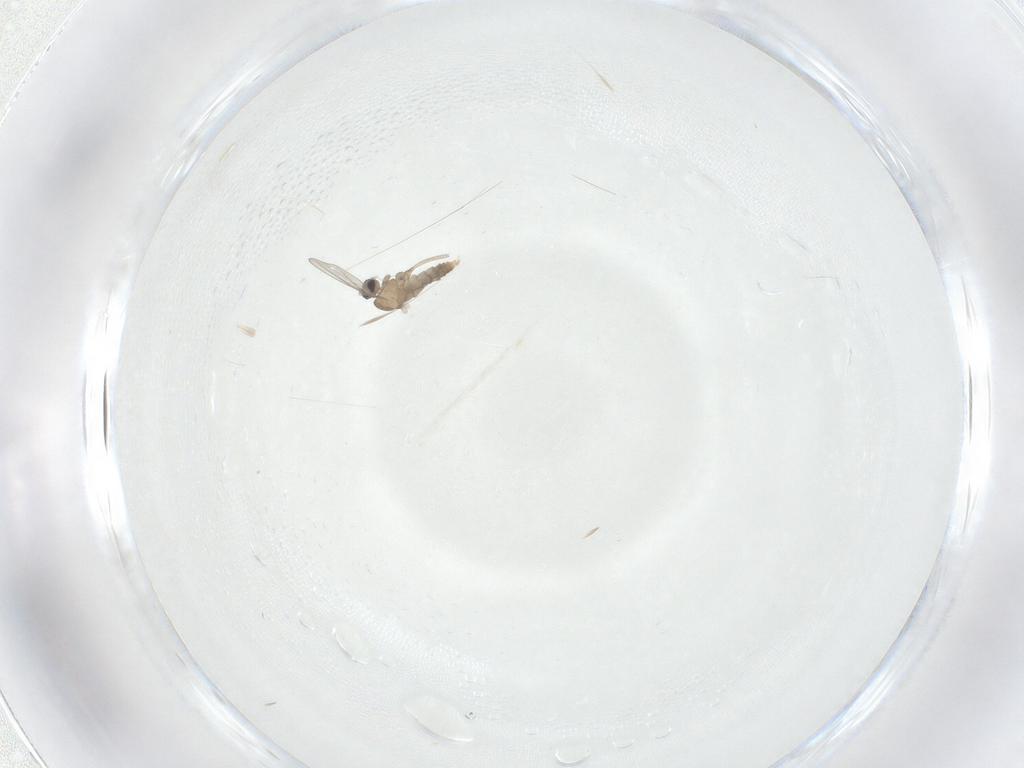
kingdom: Animalia
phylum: Arthropoda
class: Insecta
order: Diptera
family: Cecidomyiidae
